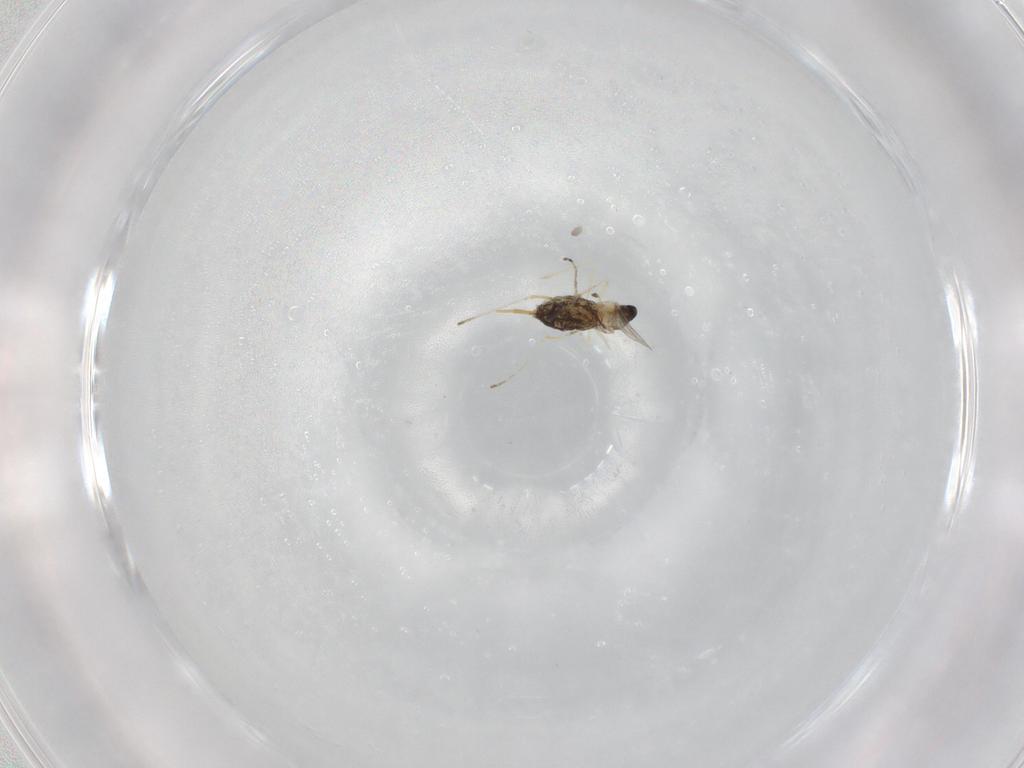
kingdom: Animalia
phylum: Arthropoda
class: Insecta
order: Diptera
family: Cecidomyiidae
